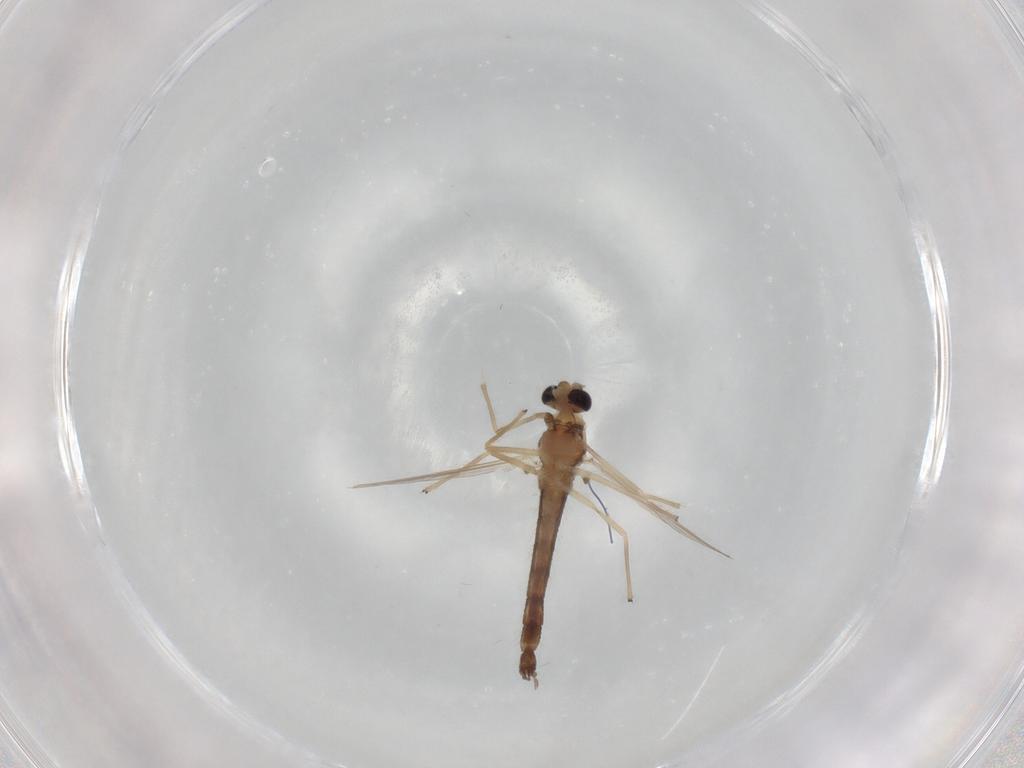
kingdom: Animalia
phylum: Arthropoda
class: Insecta
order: Diptera
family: Chironomidae
